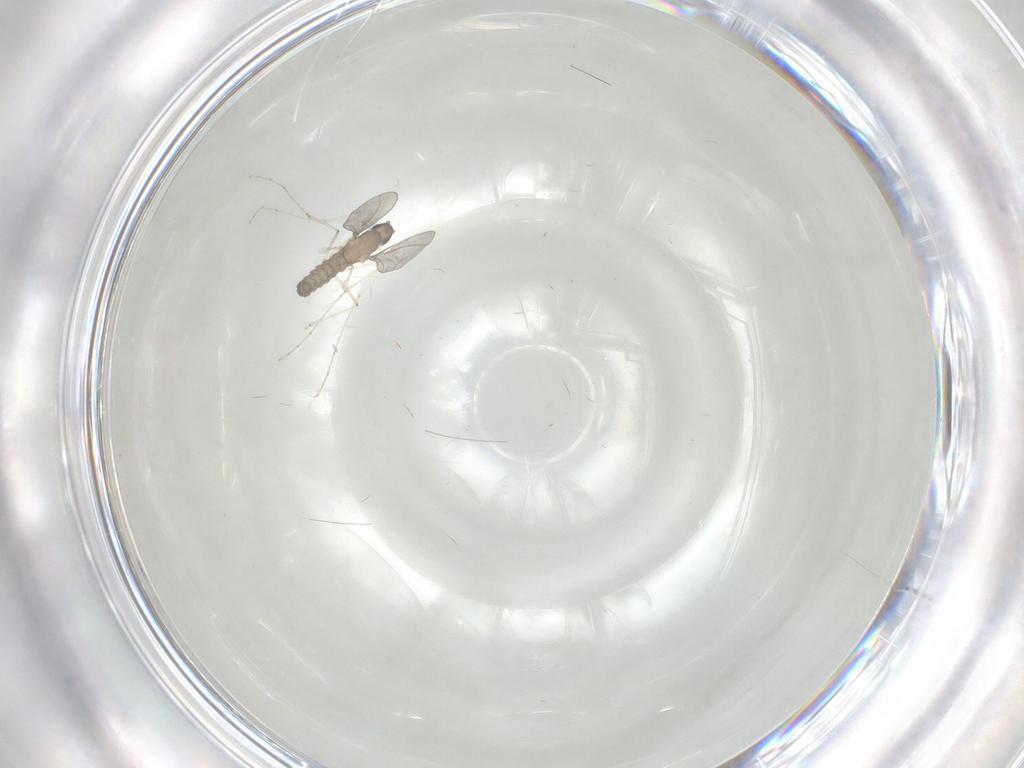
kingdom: Animalia
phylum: Arthropoda
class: Insecta
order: Diptera
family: Cecidomyiidae
